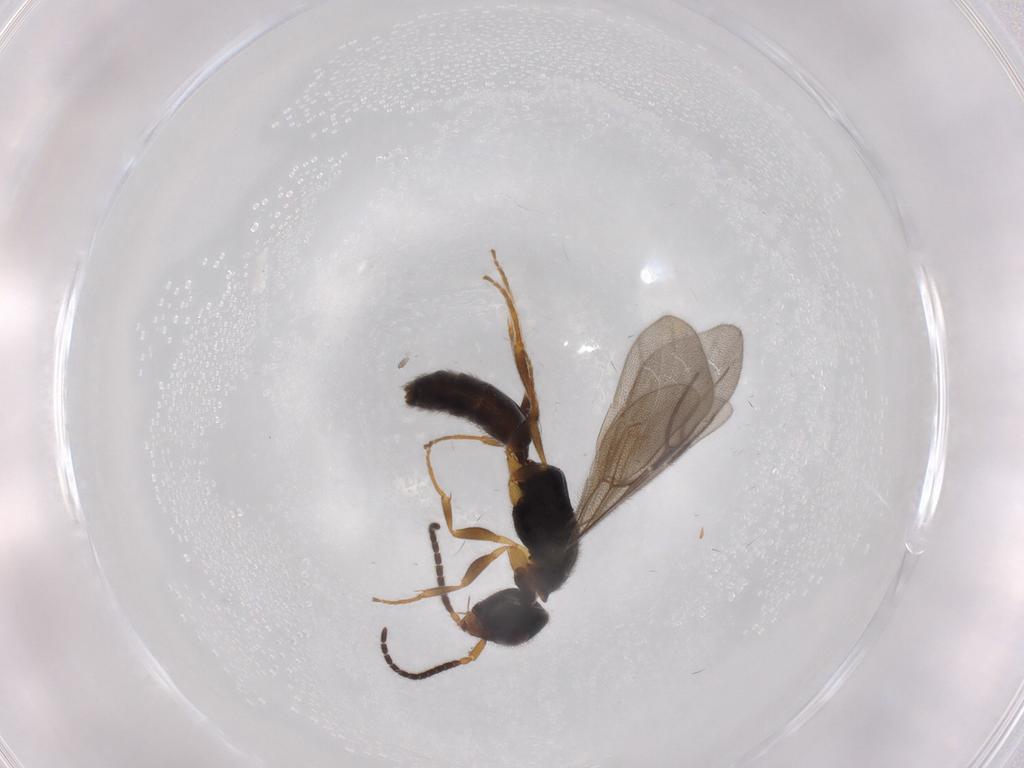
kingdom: Animalia
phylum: Arthropoda
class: Insecta
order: Hymenoptera
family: Bethylidae
